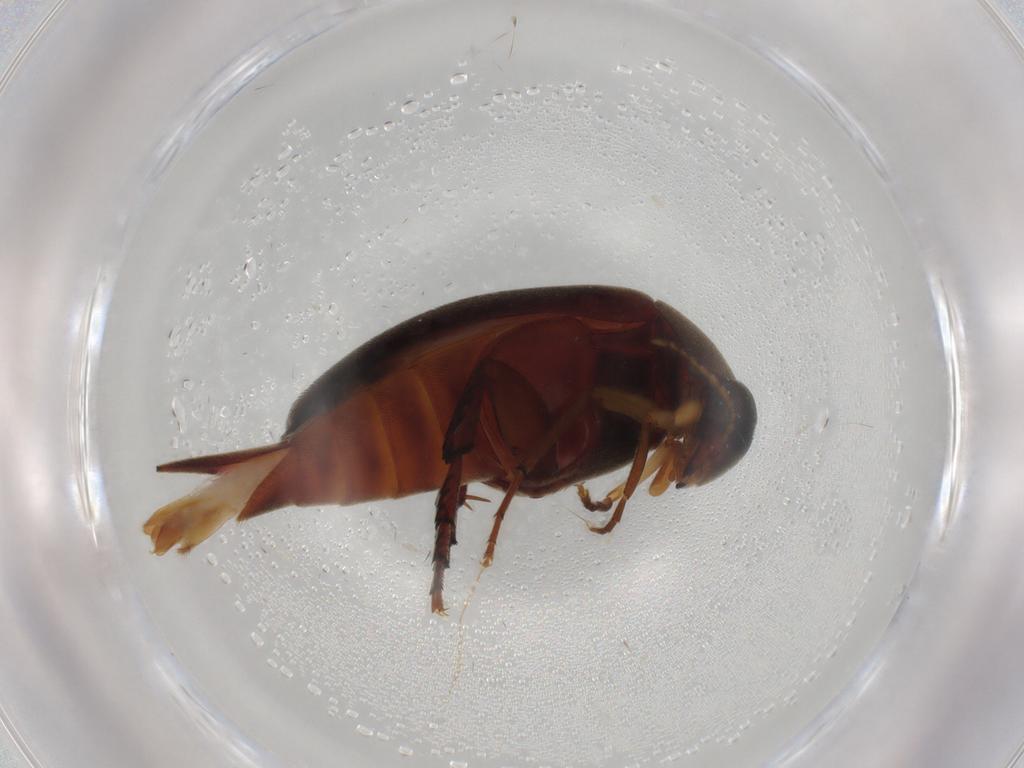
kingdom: Animalia
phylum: Arthropoda
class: Insecta
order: Coleoptera
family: Mordellidae
